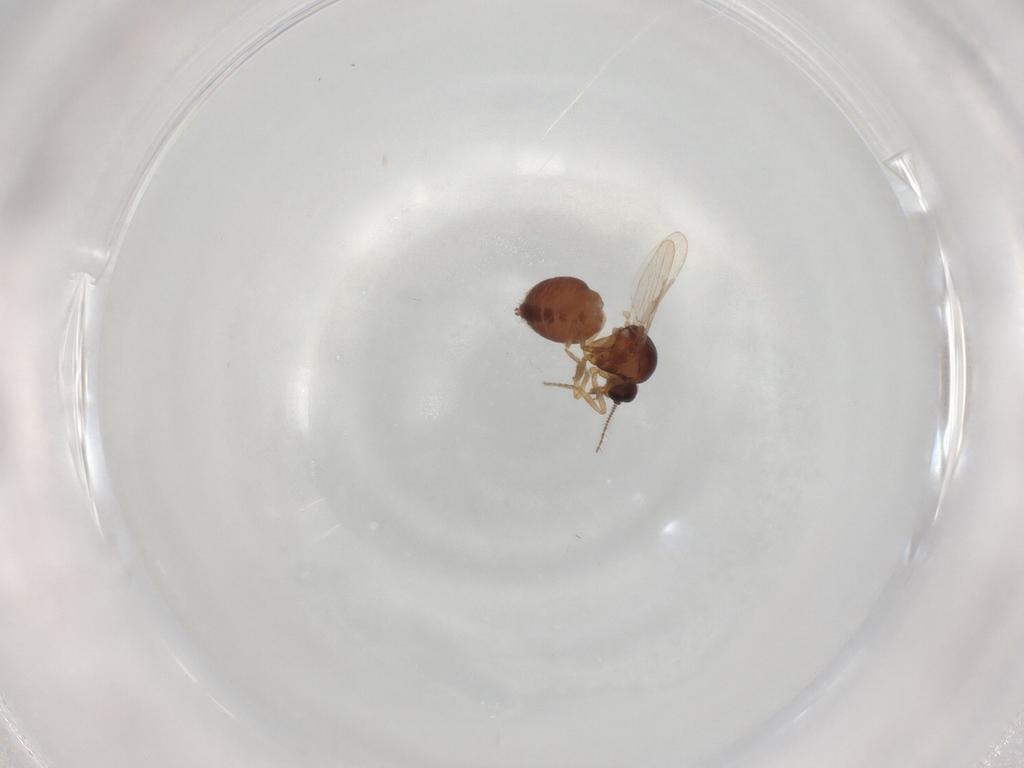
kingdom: Animalia
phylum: Arthropoda
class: Insecta
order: Diptera
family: Ceratopogonidae
